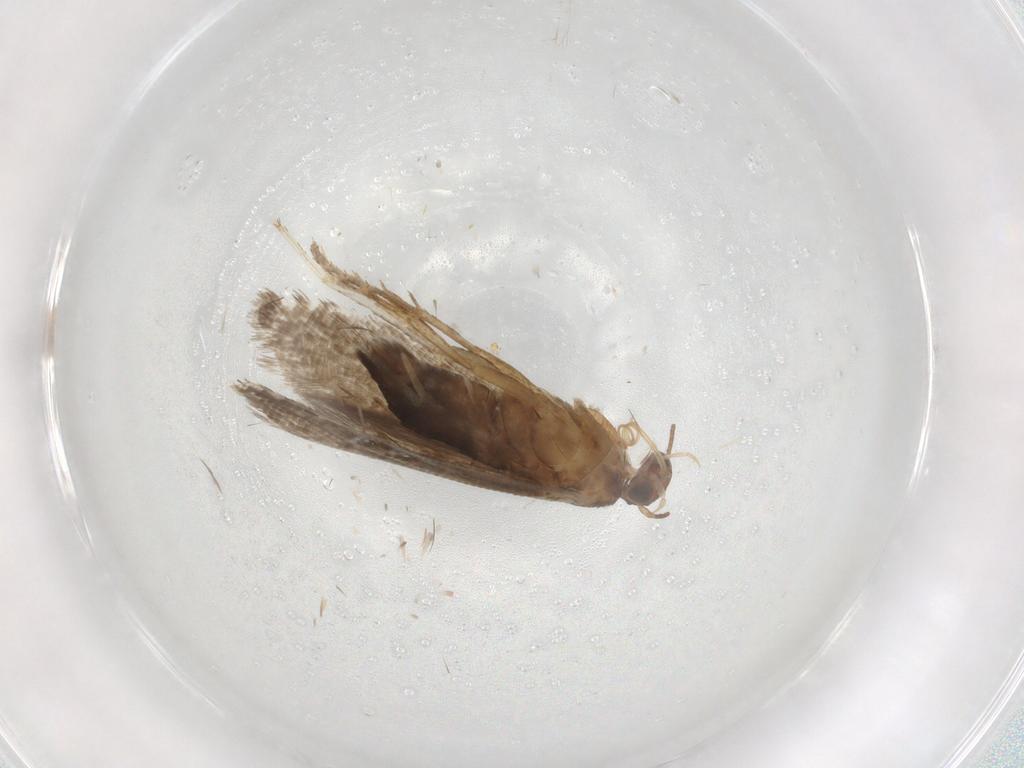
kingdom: Animalia
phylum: Arthropoda
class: Insecta
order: Lepidoptera
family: Glyphipterigidae
